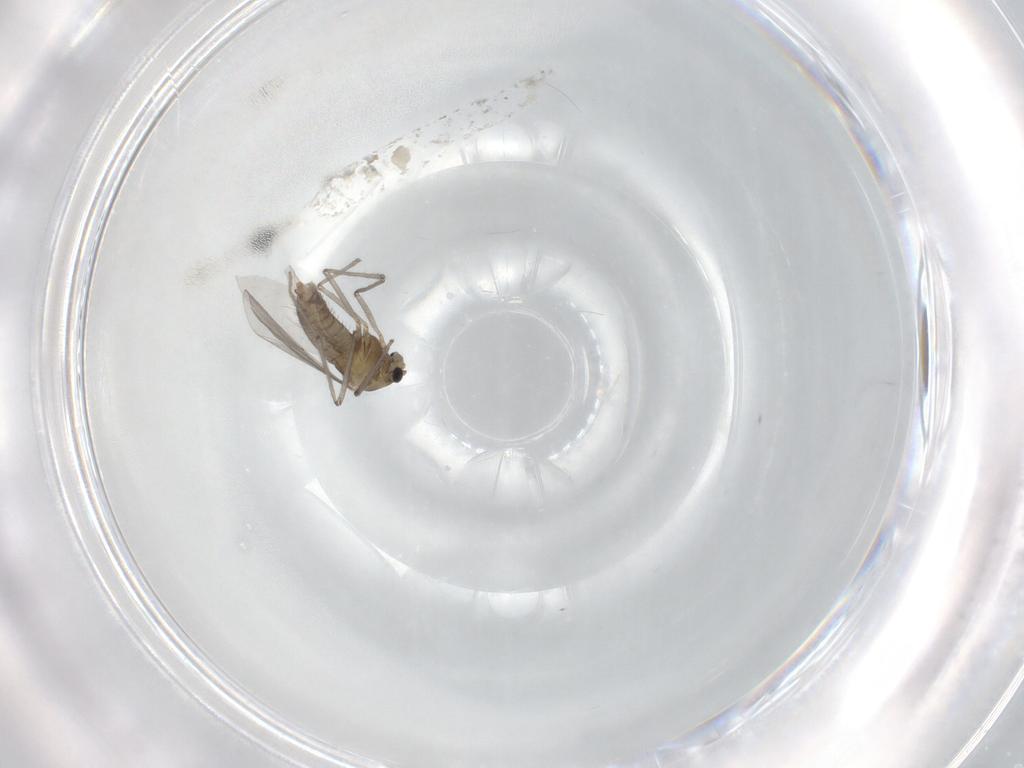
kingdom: Animalia
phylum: Arthropoda
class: Insecta
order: Diptera
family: Chironomidae
